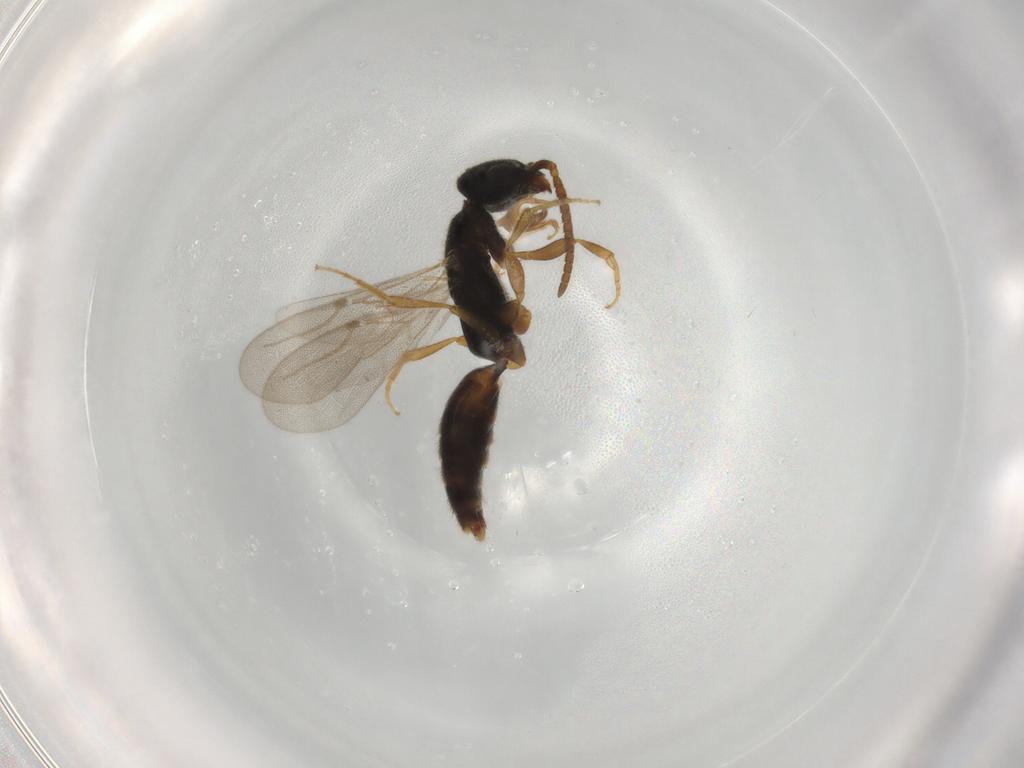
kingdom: Animalia
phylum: Arthropoda
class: Insecta
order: Hymenoptera
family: Bethylidae
